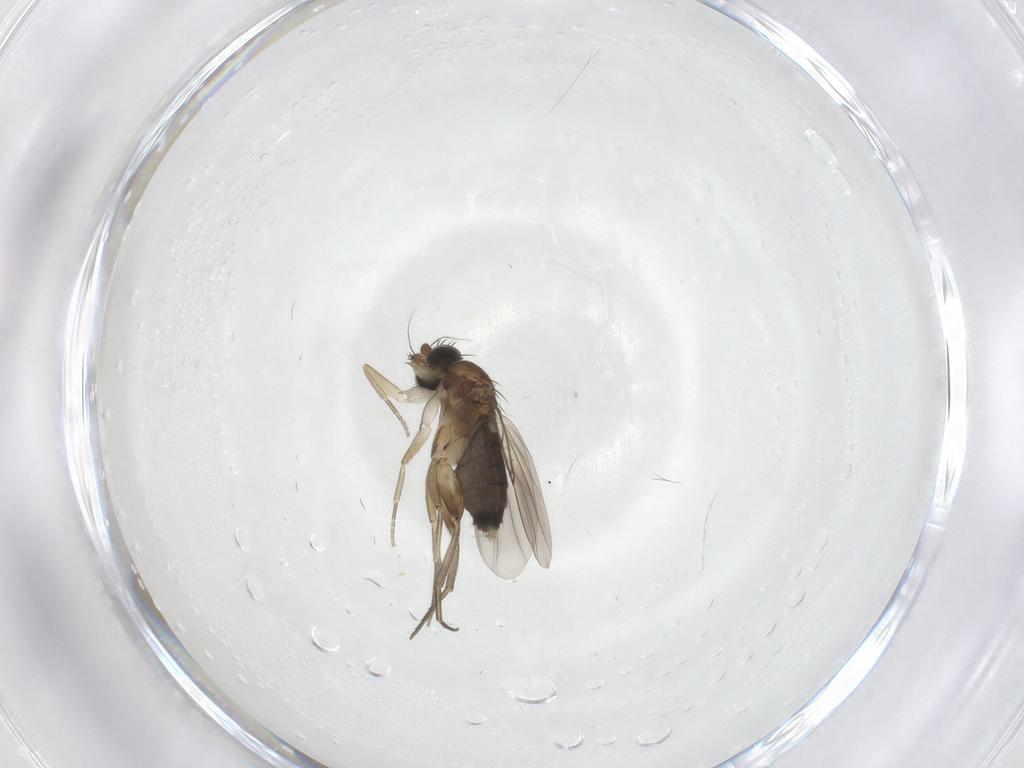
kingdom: Animalia
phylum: Arthropoda
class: Insecta
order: Diptera
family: Phoridae
